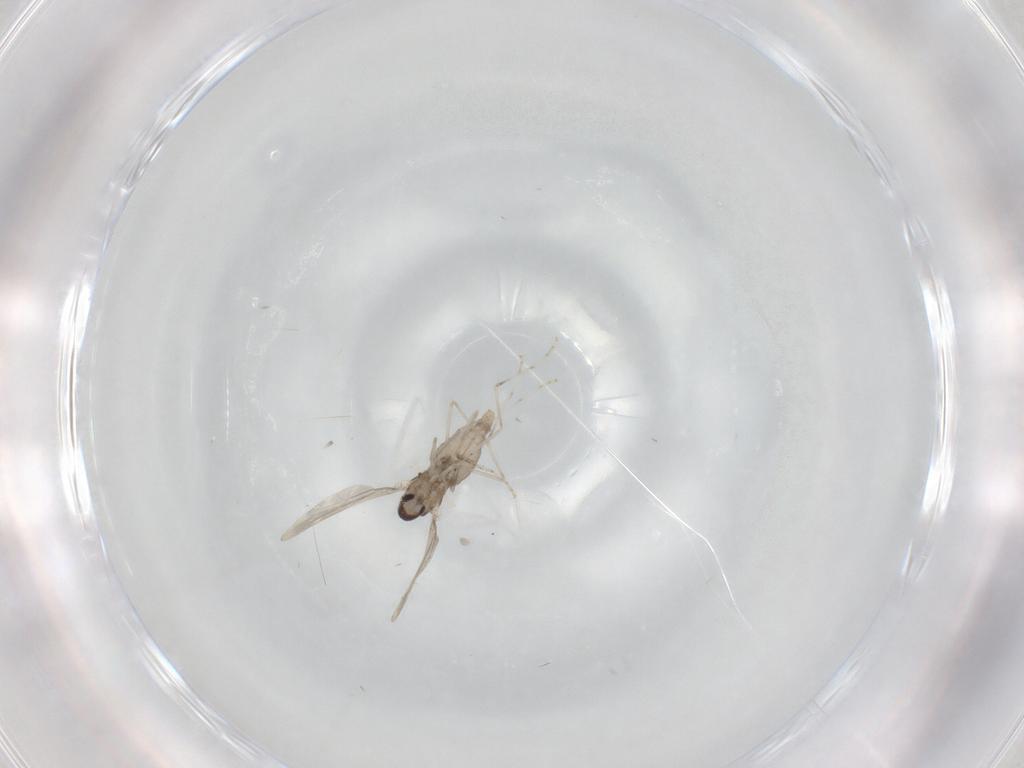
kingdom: Animalia
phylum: Arthropoda
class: Insecta
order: Diptera
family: Cecidomyiidae
